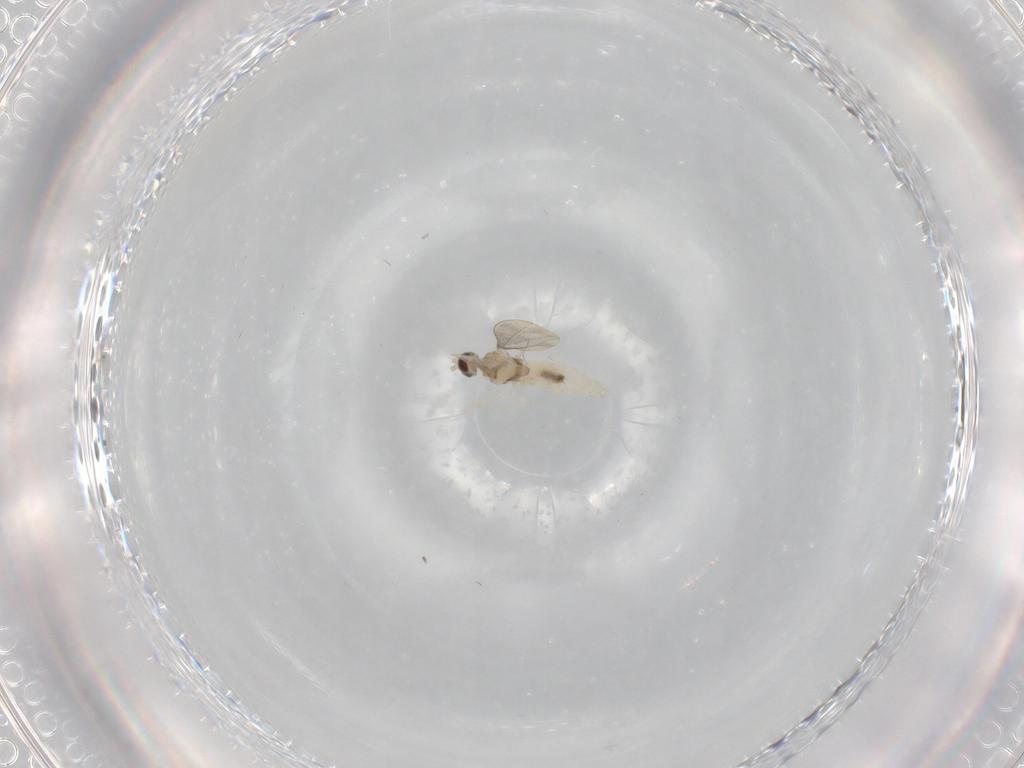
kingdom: Animalia
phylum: Arthropoda
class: Insecta
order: Diptera
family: Cecidomyiidae
